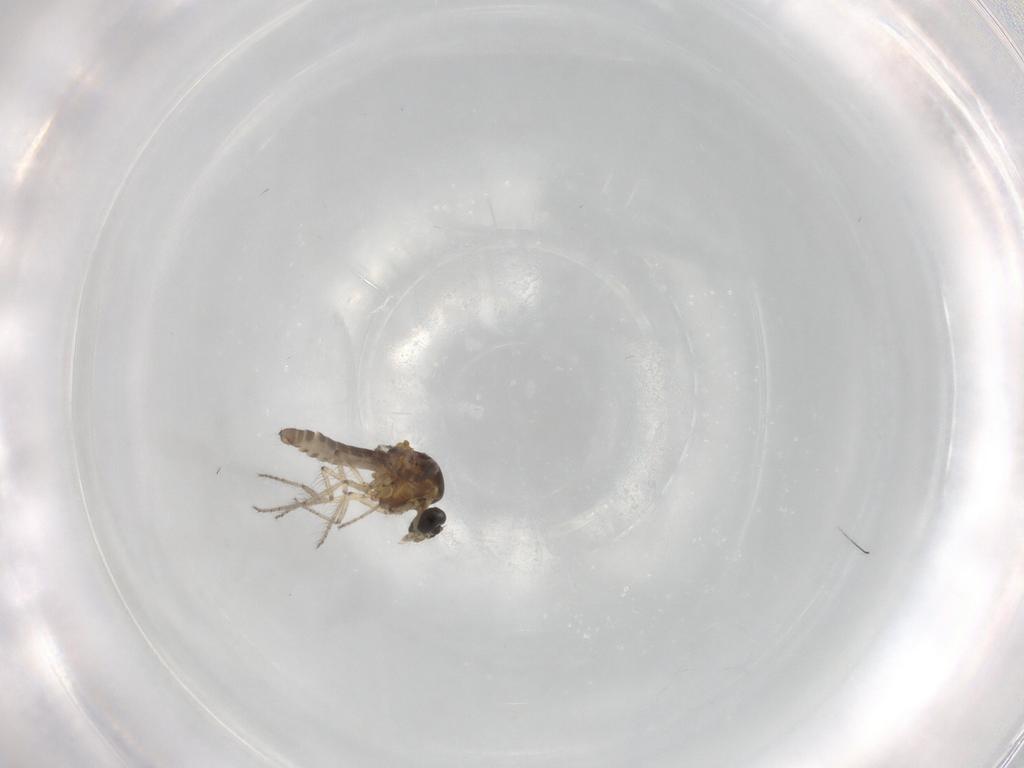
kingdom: Animalia
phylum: Arthropoda
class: Insecta
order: Diptera
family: Ceratopogonidae
